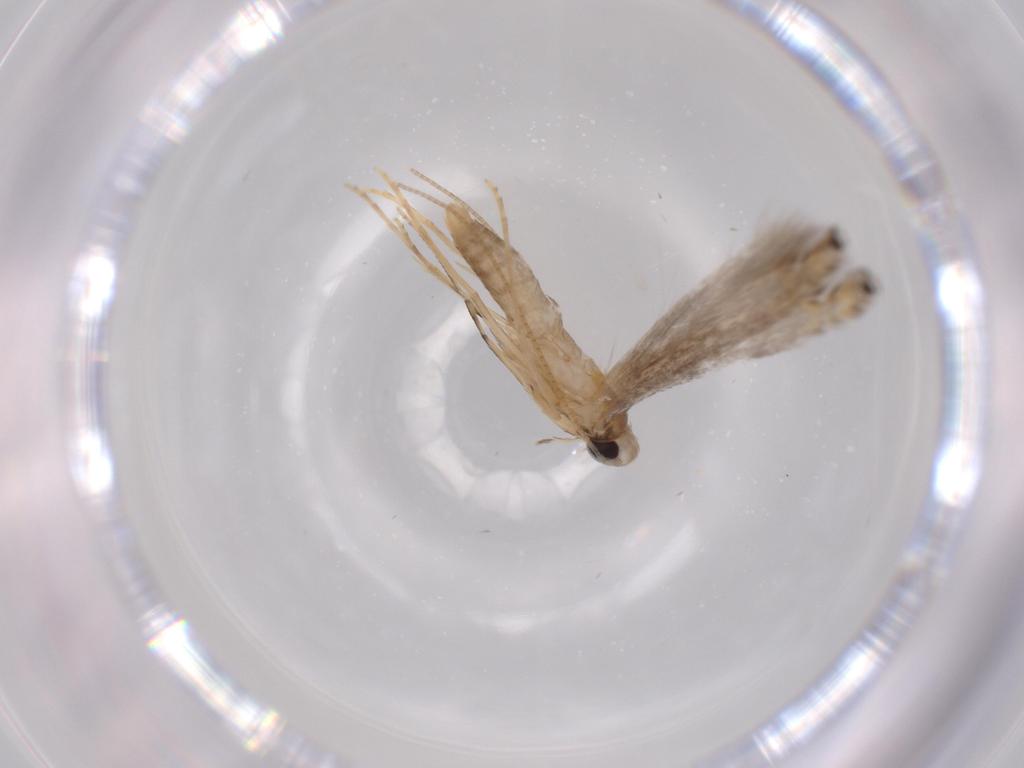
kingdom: Animalia
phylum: Arthropoda
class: Insecta
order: Lepidoptera
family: Gracillariidae
